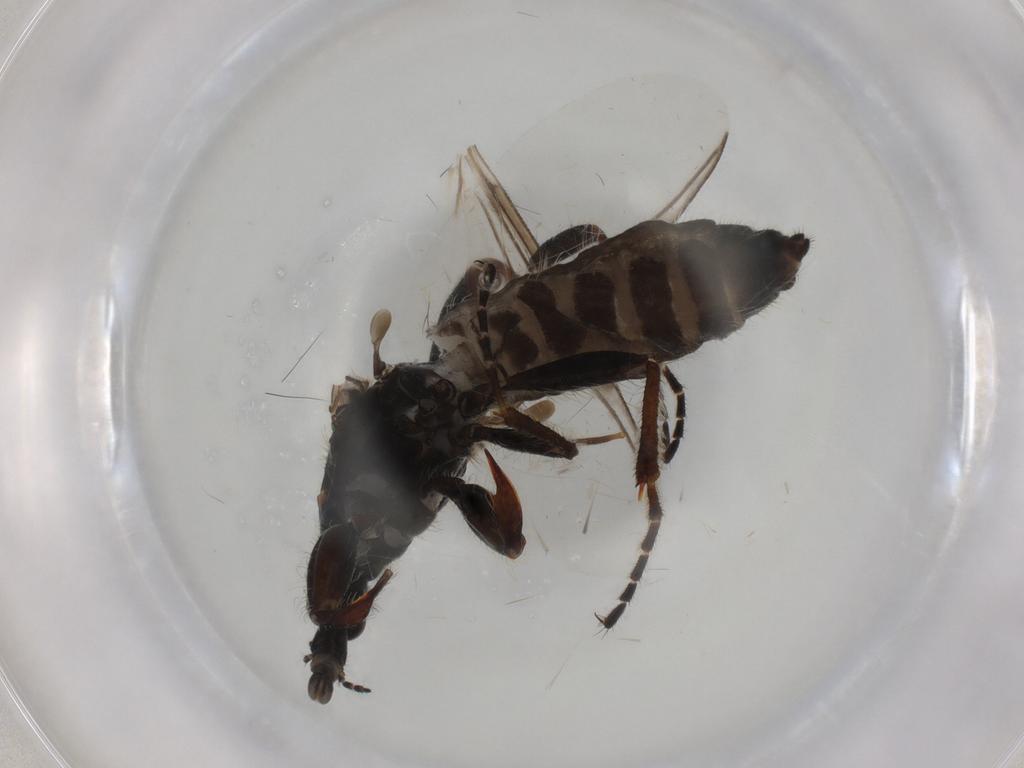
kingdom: Animalia
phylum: Arthropoda
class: Insecta
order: Diptera
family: Bibionidae
